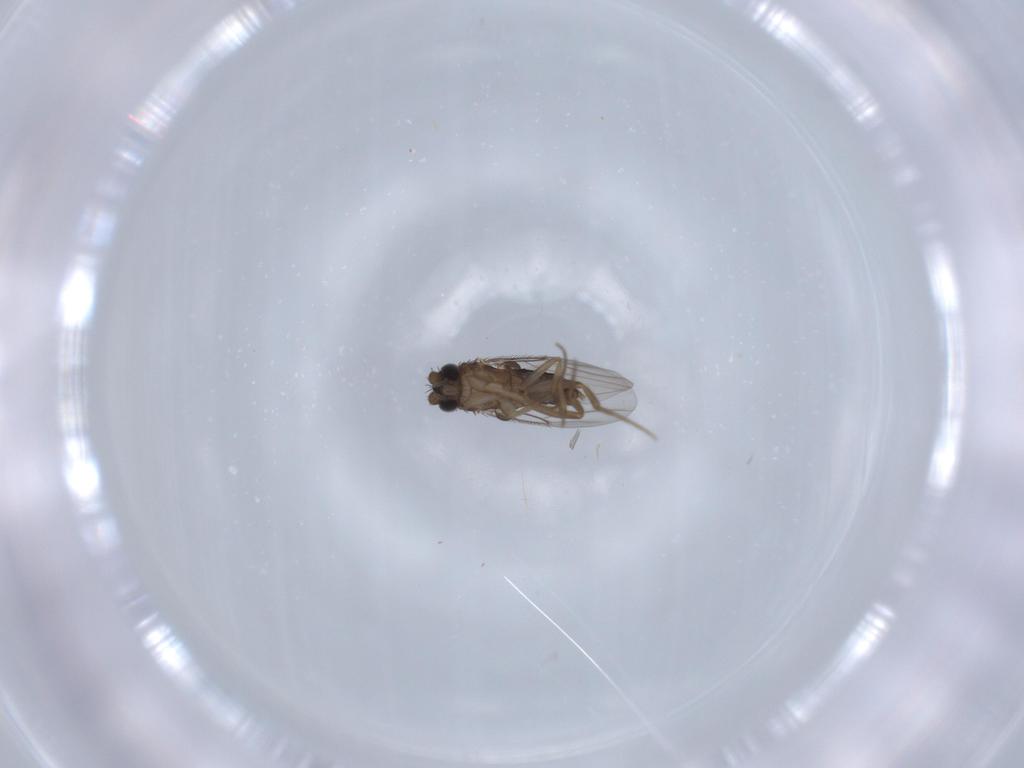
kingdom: Animalia
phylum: Arthropoda
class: Insecta
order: Diptera
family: Phoridae
